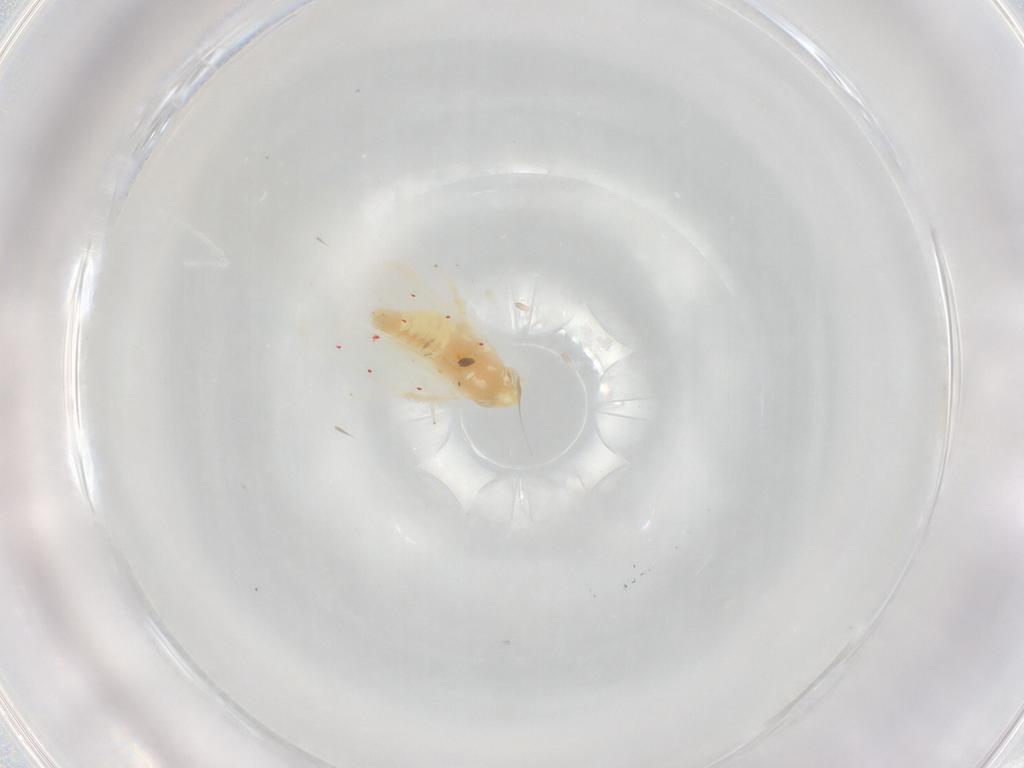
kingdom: Animalia
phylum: Arthropoda
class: Insecta
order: Hemiptera
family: Cicadellidae
